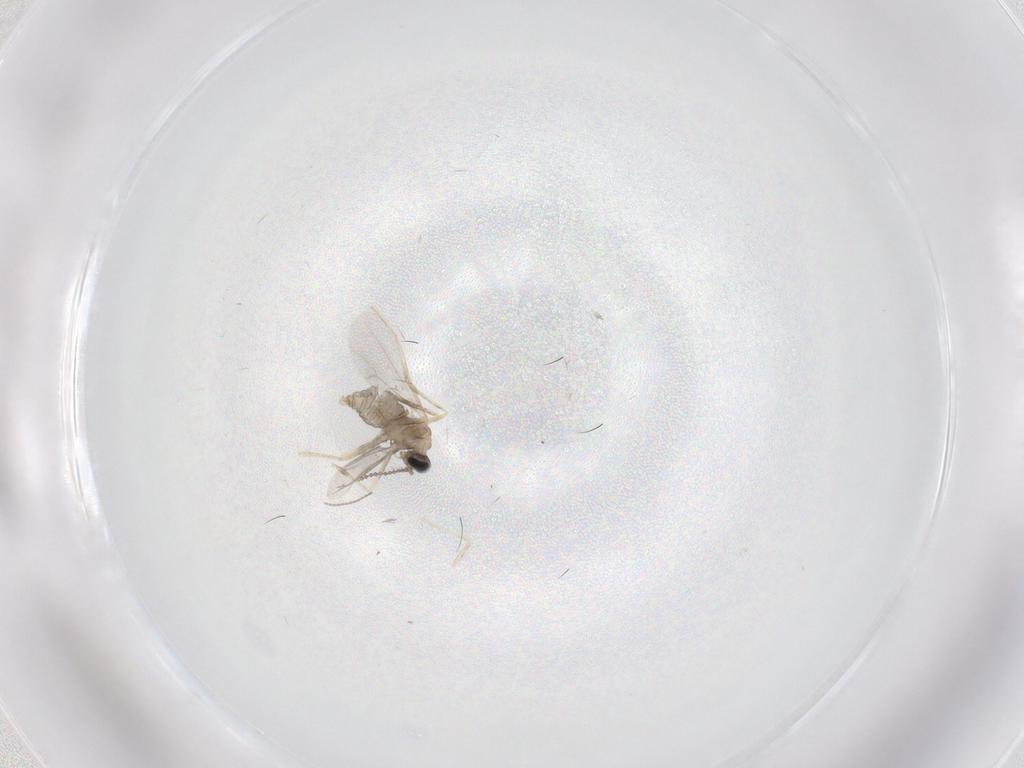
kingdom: Animalia
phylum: Arthropoda
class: Insecta
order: Diptera
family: Cecidomyiidae
